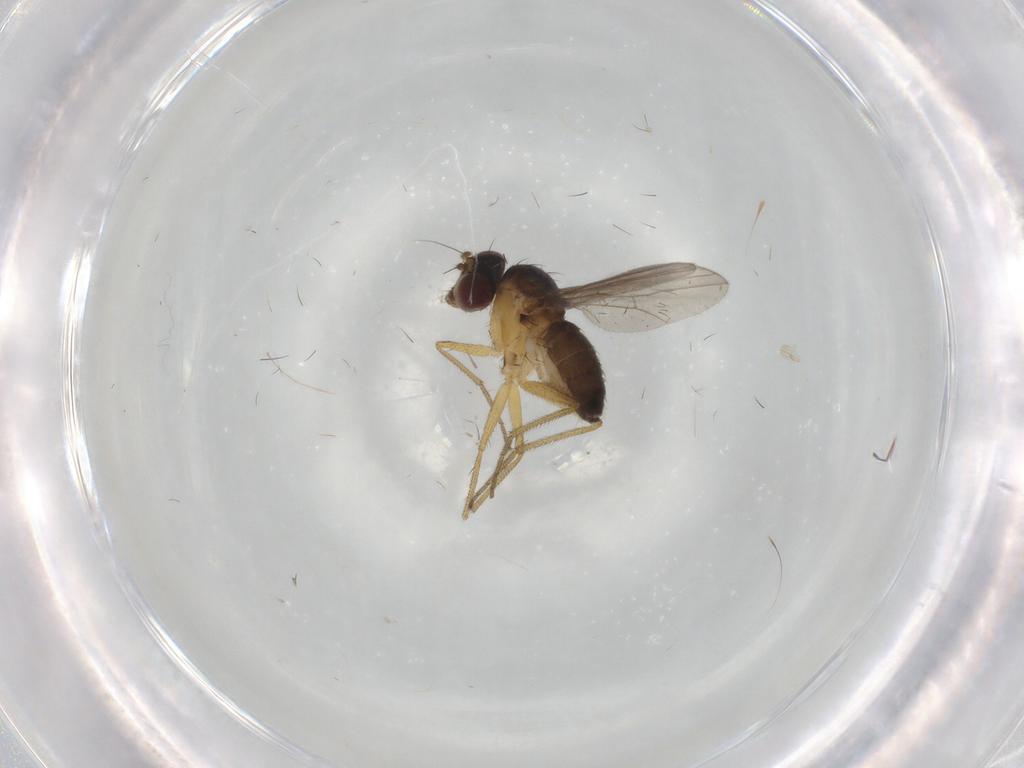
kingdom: Animalia
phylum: Arthropoda
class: Insecta
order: Diptera
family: Dolichopodidae
